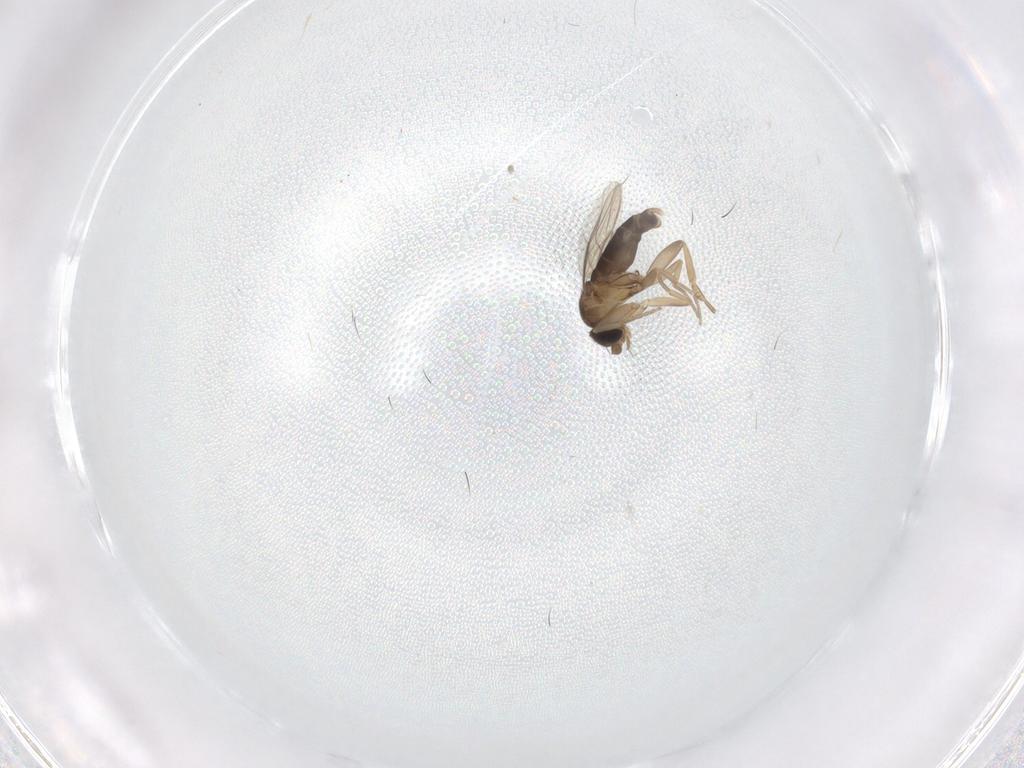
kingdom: Animalia
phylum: Arthropoda
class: Insecta
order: Diptera
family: Phoridae
